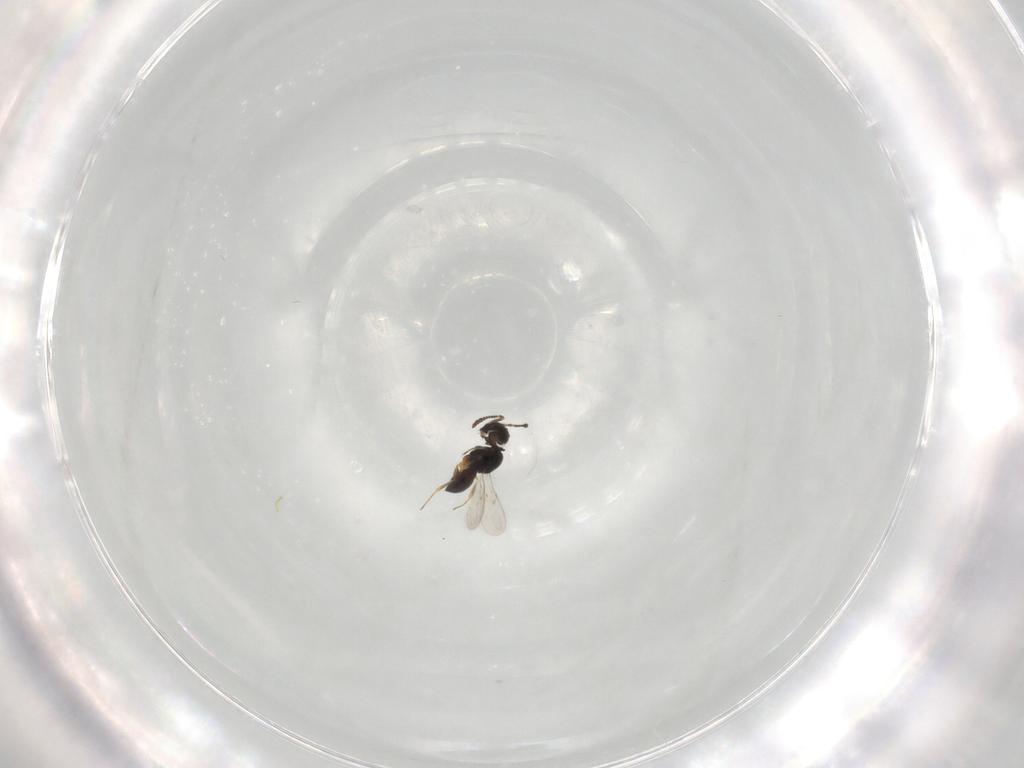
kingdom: Animalia
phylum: Arthropoda
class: Insecta
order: Hymenoptera
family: Scelionidae
